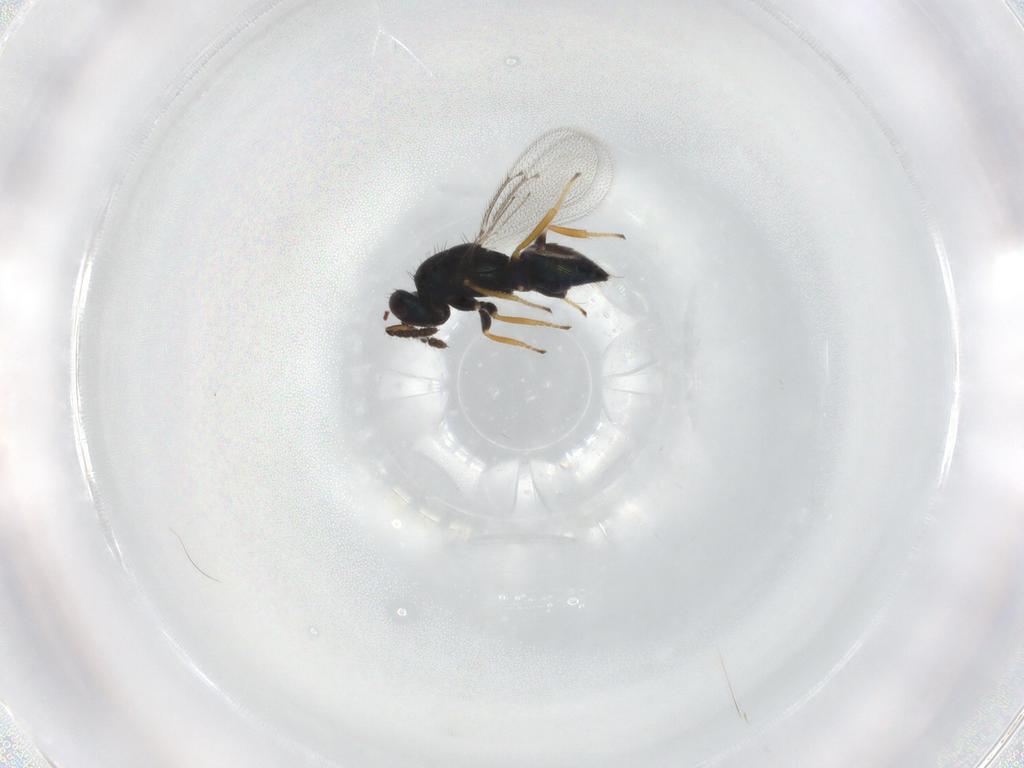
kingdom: Animalia
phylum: Arthropoda
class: Insecta
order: Hymenoptera
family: Eulophidae
